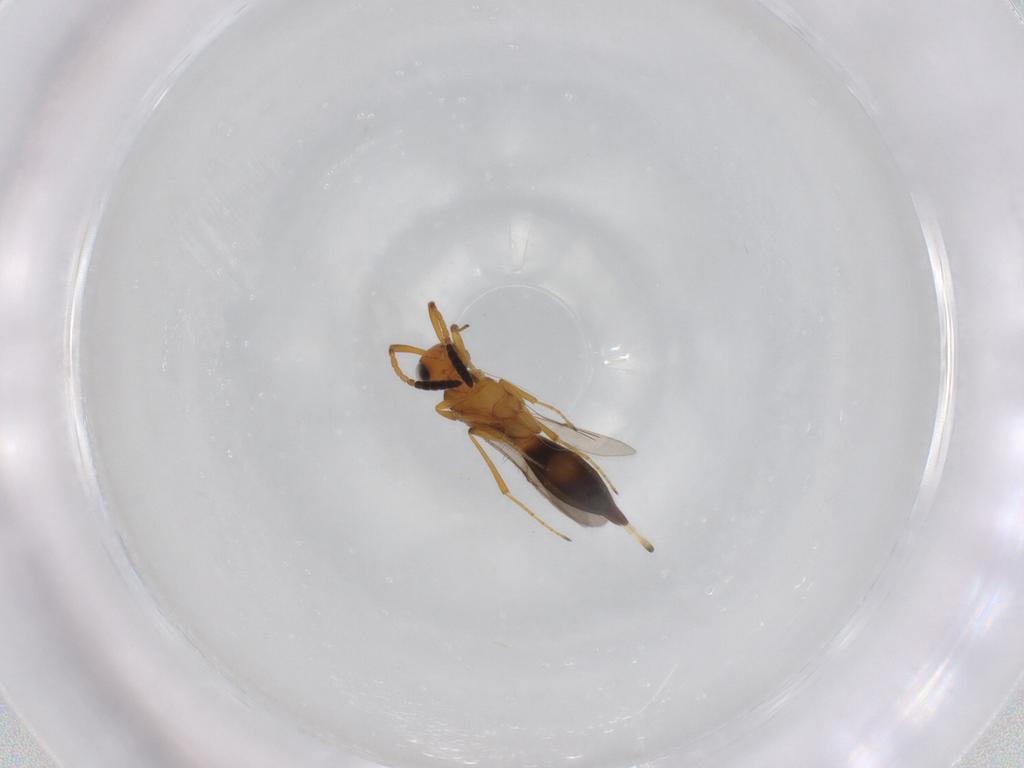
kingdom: Animalia
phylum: Arthropoda
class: Insecta
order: Hymenoptera
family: Scelionidae
